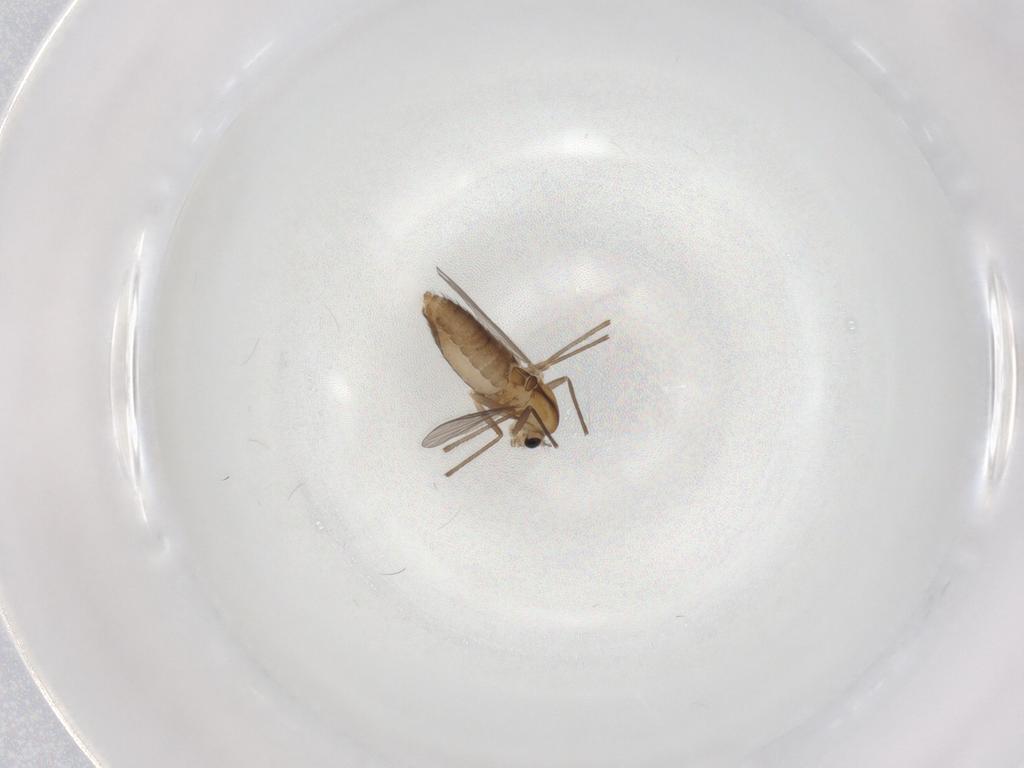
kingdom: Animalia
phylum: Arthropoda
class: Insecta
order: Diptera
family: Chironomidae
